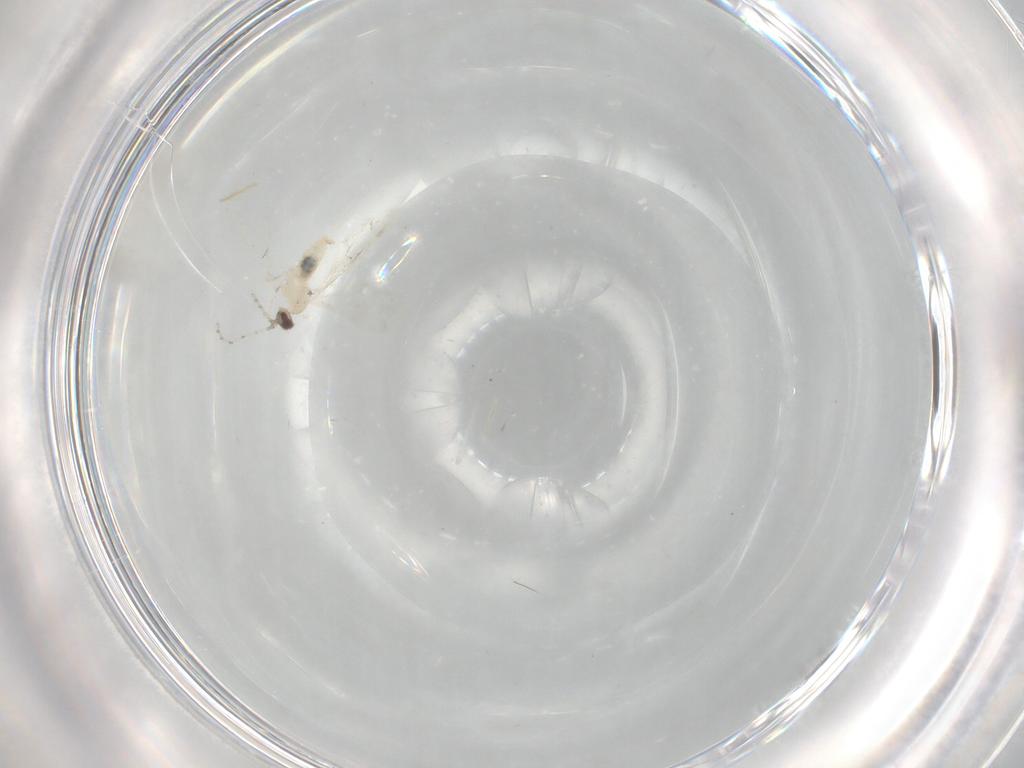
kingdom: Animalia
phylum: Arthropoda
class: Insecta
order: Diptera
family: Cecidomyiidae
